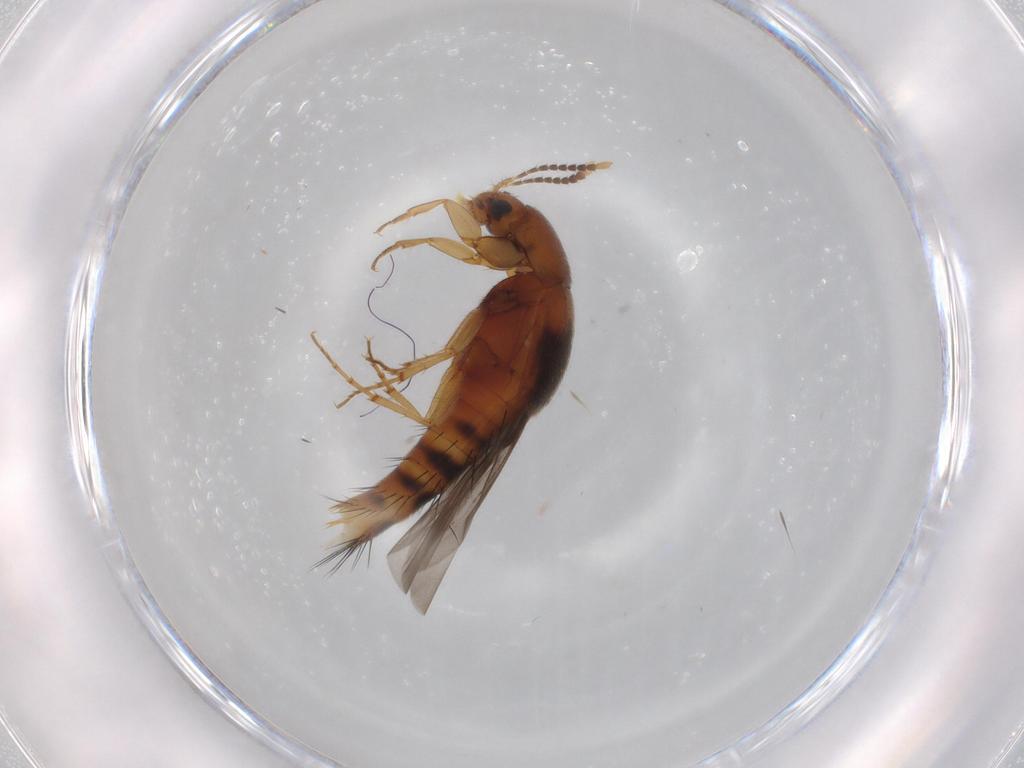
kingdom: Animalia
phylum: Arthropoda
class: Insecta
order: Coleoptera
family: Staphylinidae
